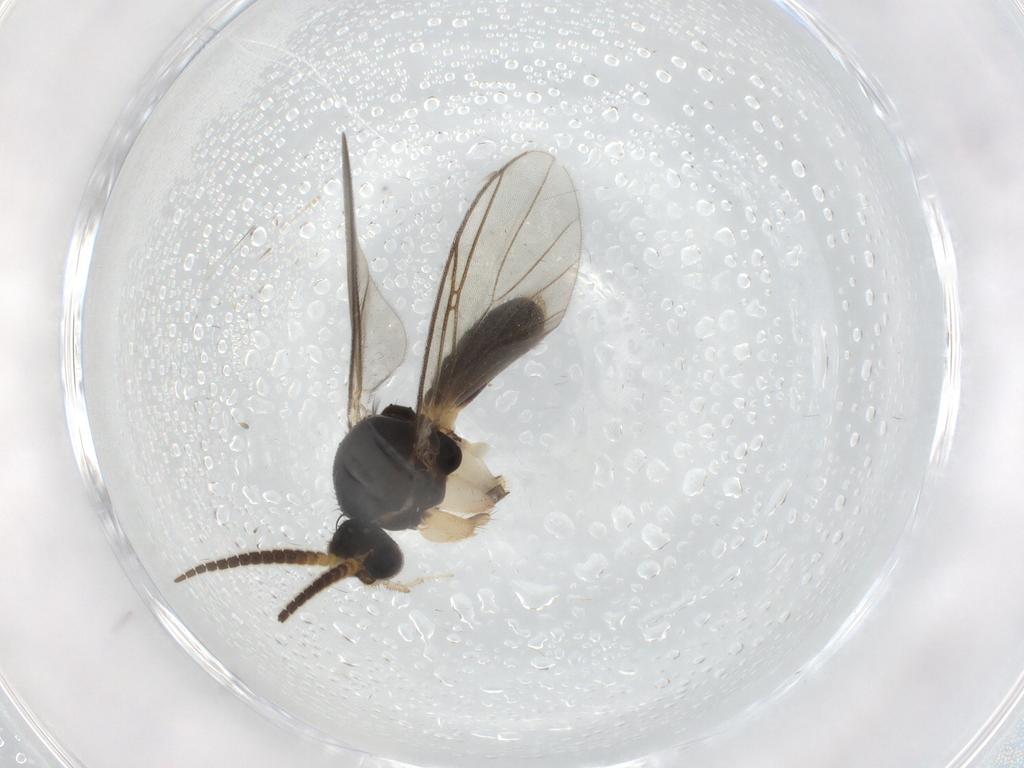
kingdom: Animalia
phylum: Arthropoda
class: Insecta
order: Diptera
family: Mycetophilidae
